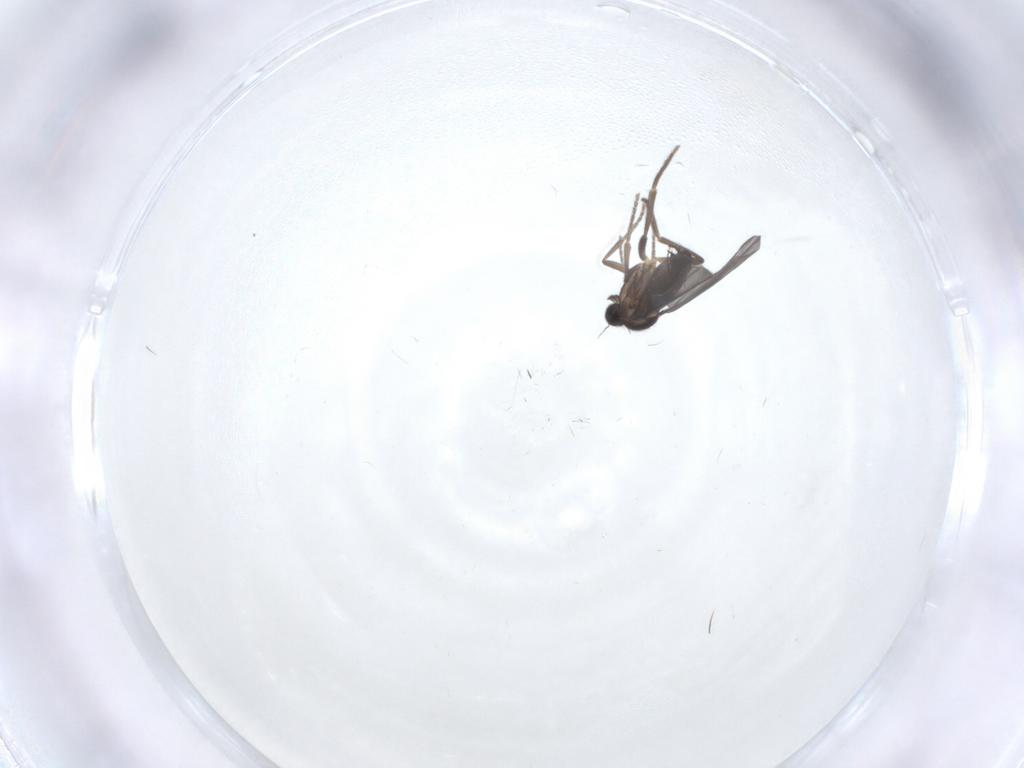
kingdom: Animalia
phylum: Arthropoda
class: Insecta
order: Diptera
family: Phoridae
